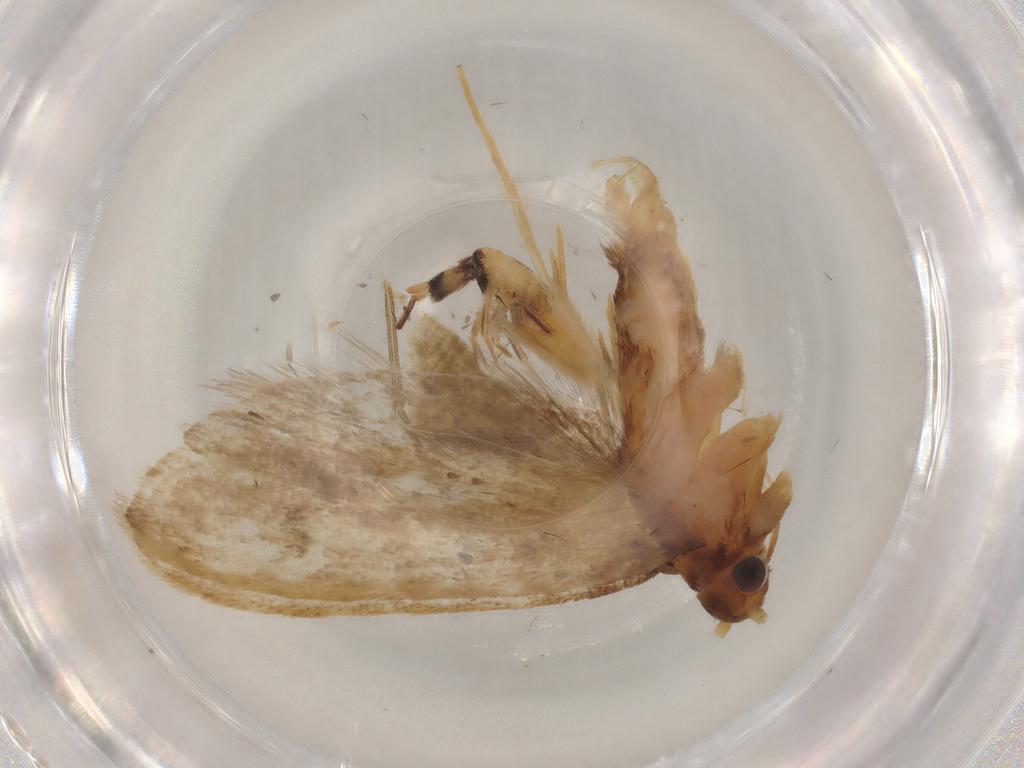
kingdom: Animalia
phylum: Arthropoda
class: Insecta
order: Lepidoptera
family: Lecithoceridae
